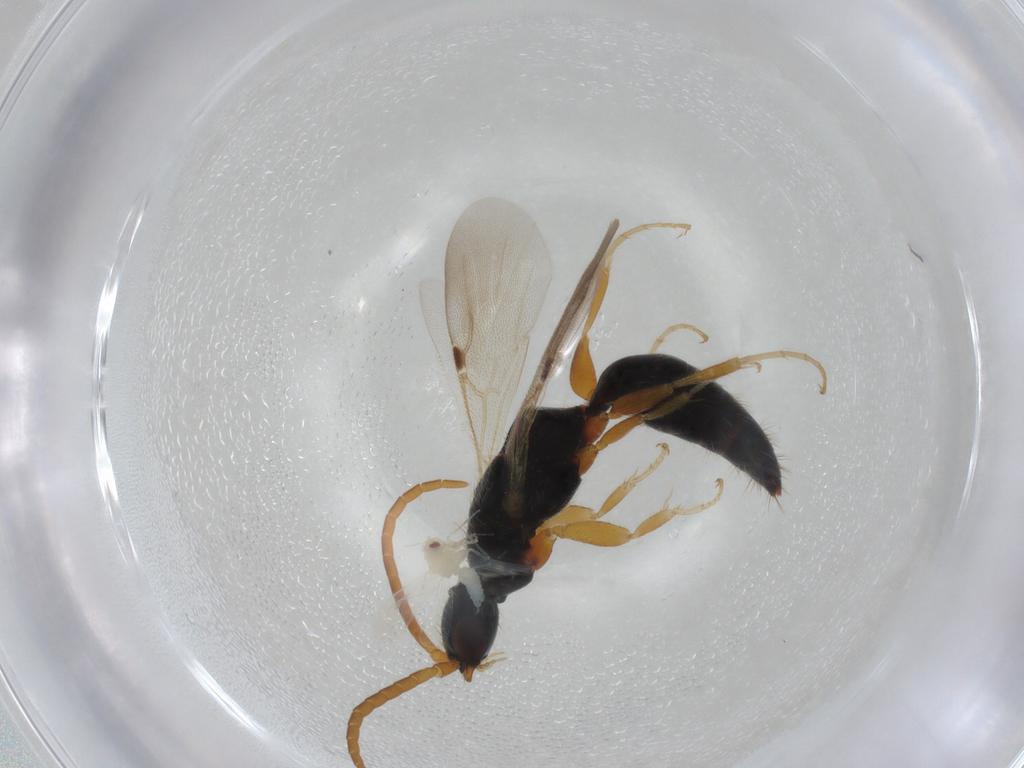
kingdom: Animalia
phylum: Arthropoda
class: Insecta
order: Hymenoptera
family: Bethylidae
